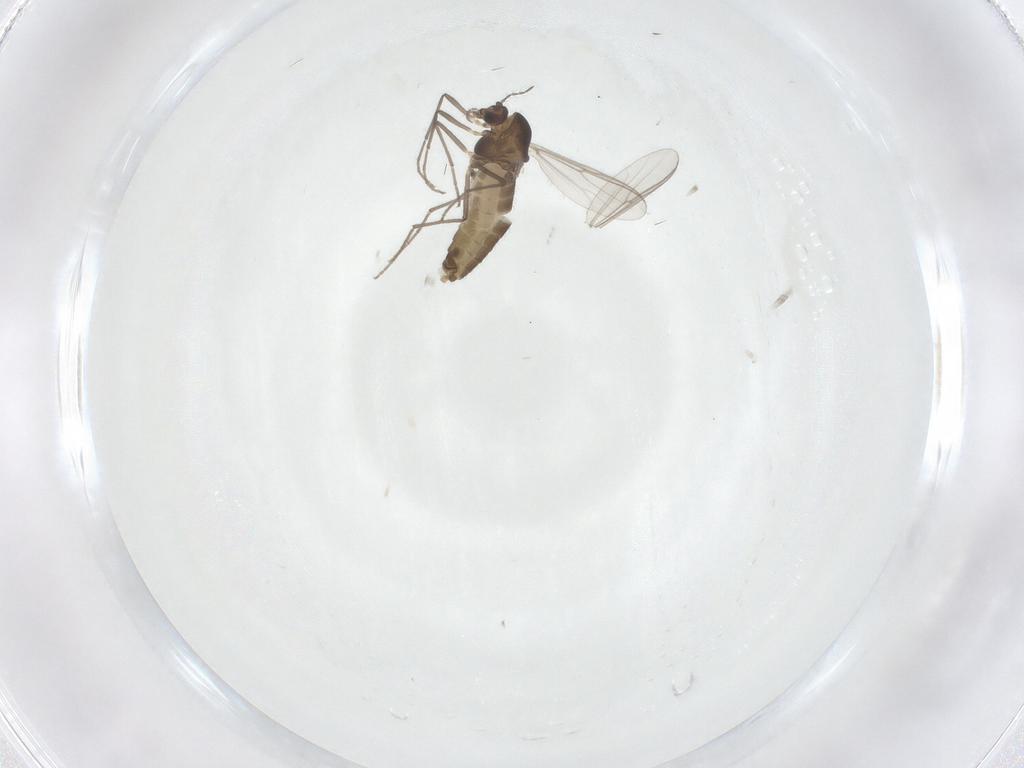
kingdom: Animalia
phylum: Arthropoda
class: Insecta
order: Diptera
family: Chironomidae
